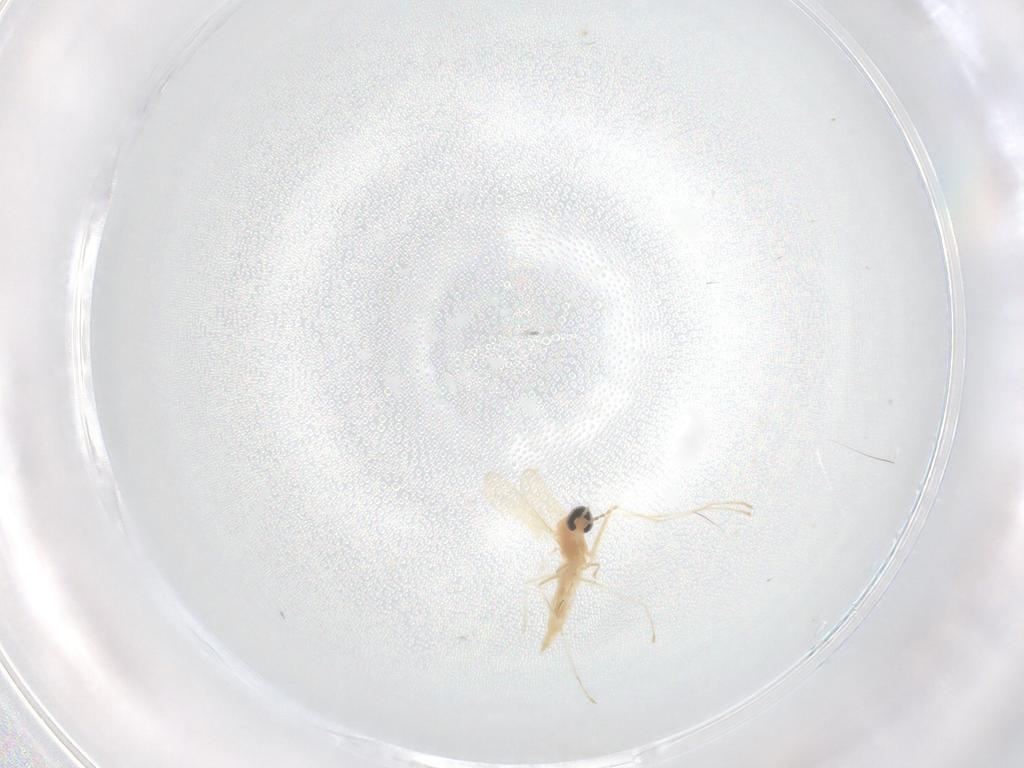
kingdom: Animalia
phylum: Arthropoda
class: Insecta
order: Diptera
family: Cecidomyiidae
